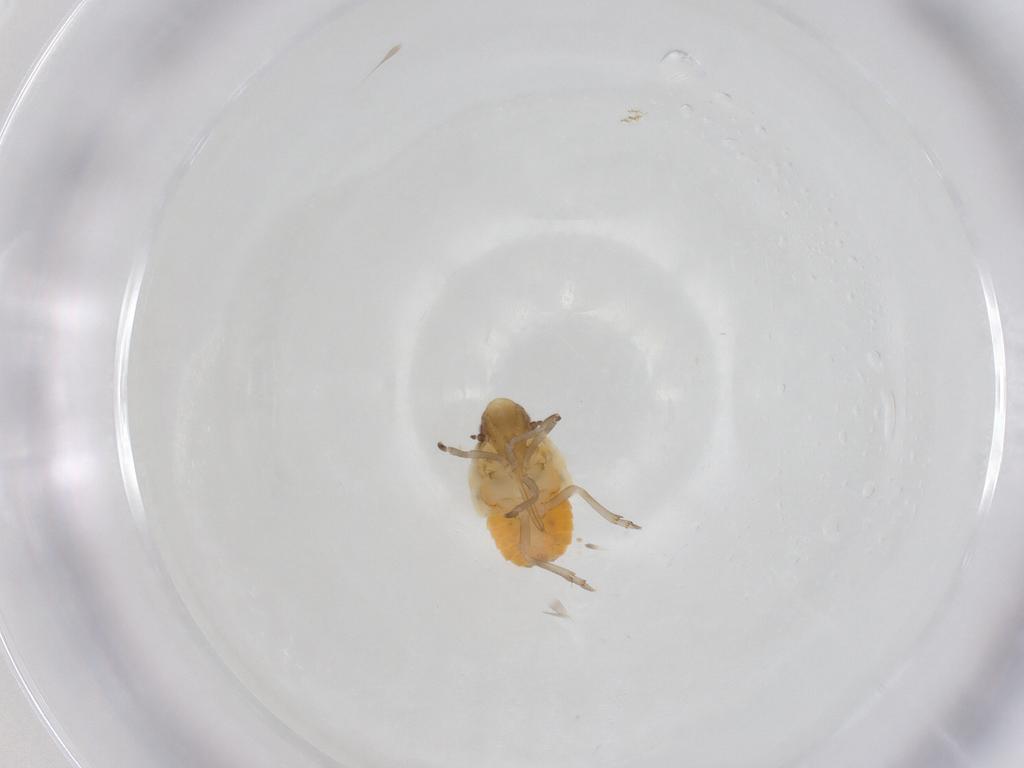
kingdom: Animalia
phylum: Arthropoda
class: Insecta
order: Hemiptera
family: Flatidae
